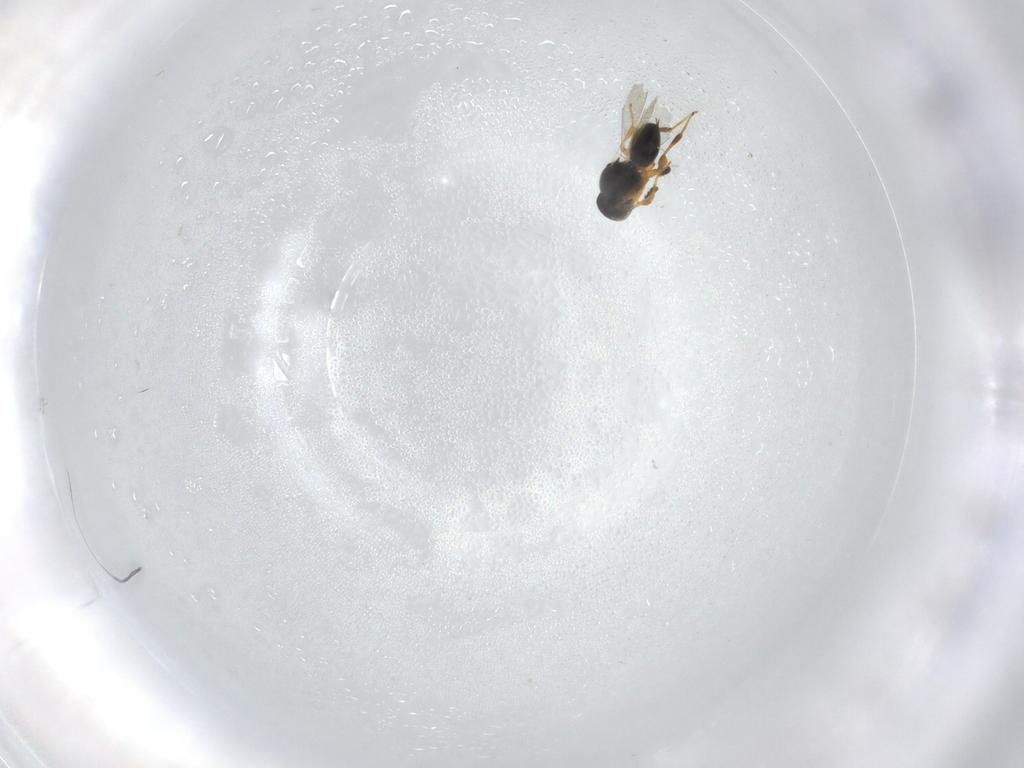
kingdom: Animalia
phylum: Arthropoda
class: Insecta
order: Hymenoptera
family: Platygastridae
